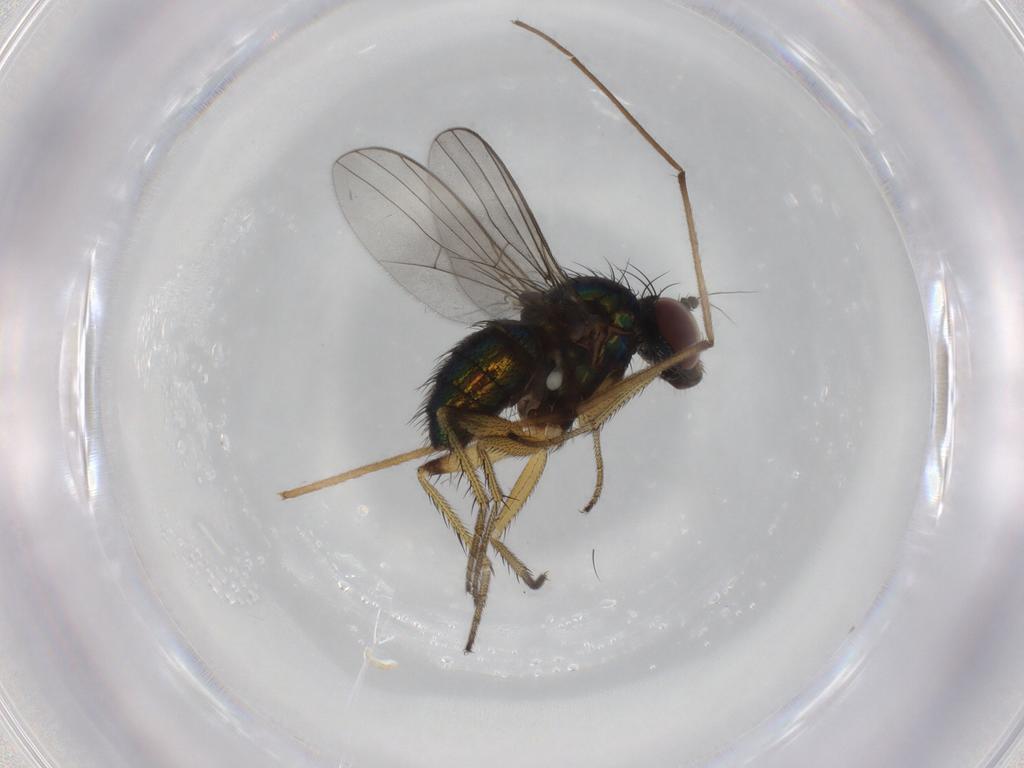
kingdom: Animalia
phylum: Arthropoda
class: Insecta
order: Diptera
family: Dolichopodidae
